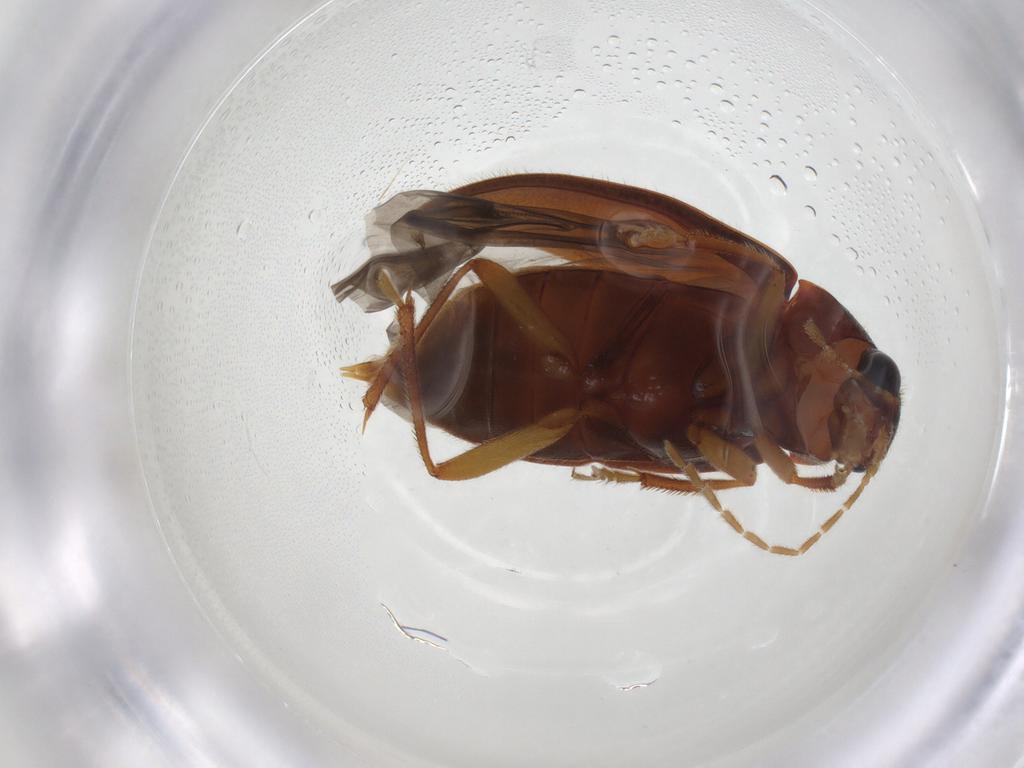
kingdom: Animalia
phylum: Arthropoda
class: Insecta
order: Coleoptera
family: Ptilodactylidae
